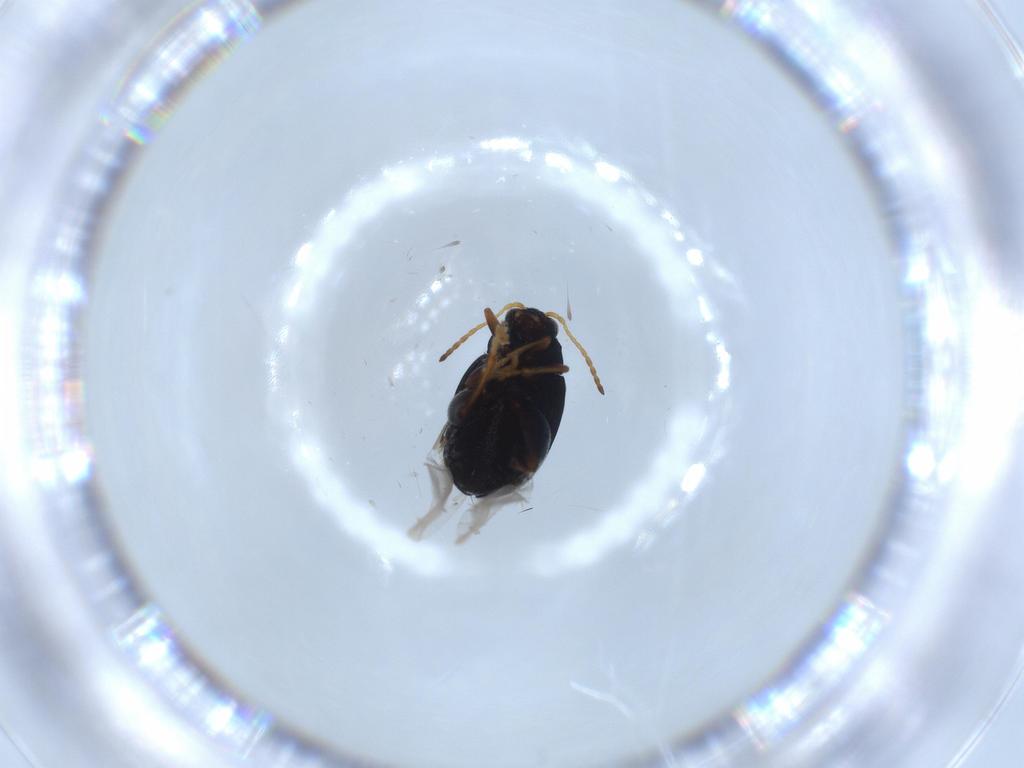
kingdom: Animalia
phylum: Arthropoda
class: Insecta
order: Coleoptera
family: Chrysomelidae
